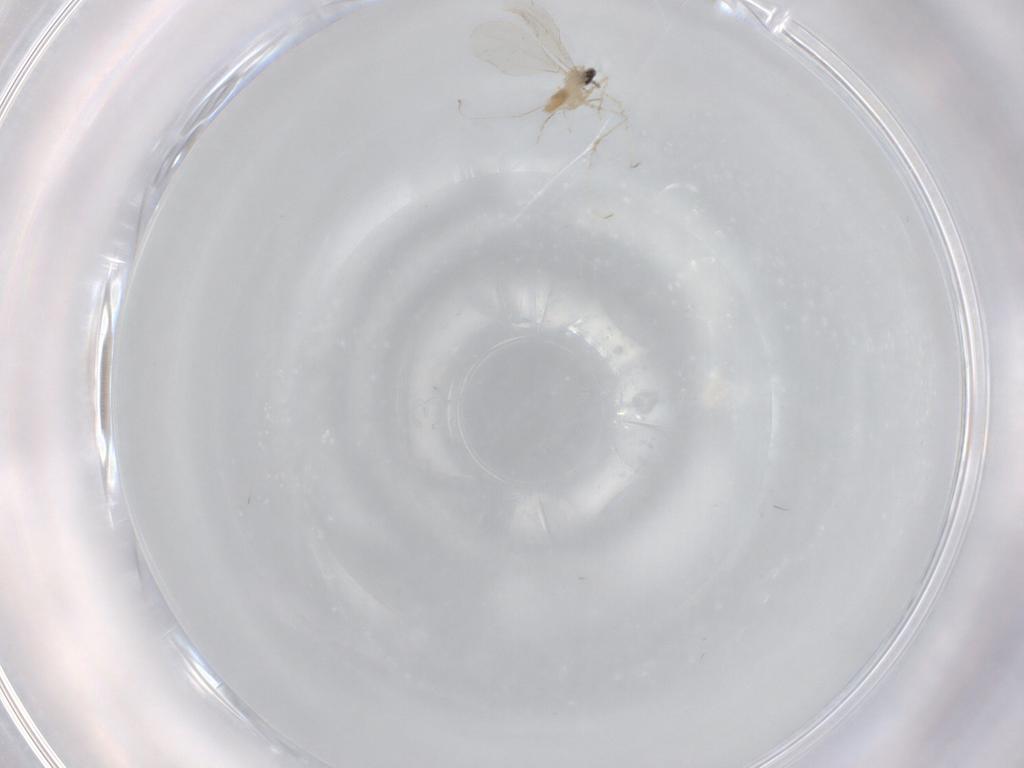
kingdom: Animalia
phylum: Arthropoda
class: Insecta
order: Diptera
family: Cecidomyiidae
